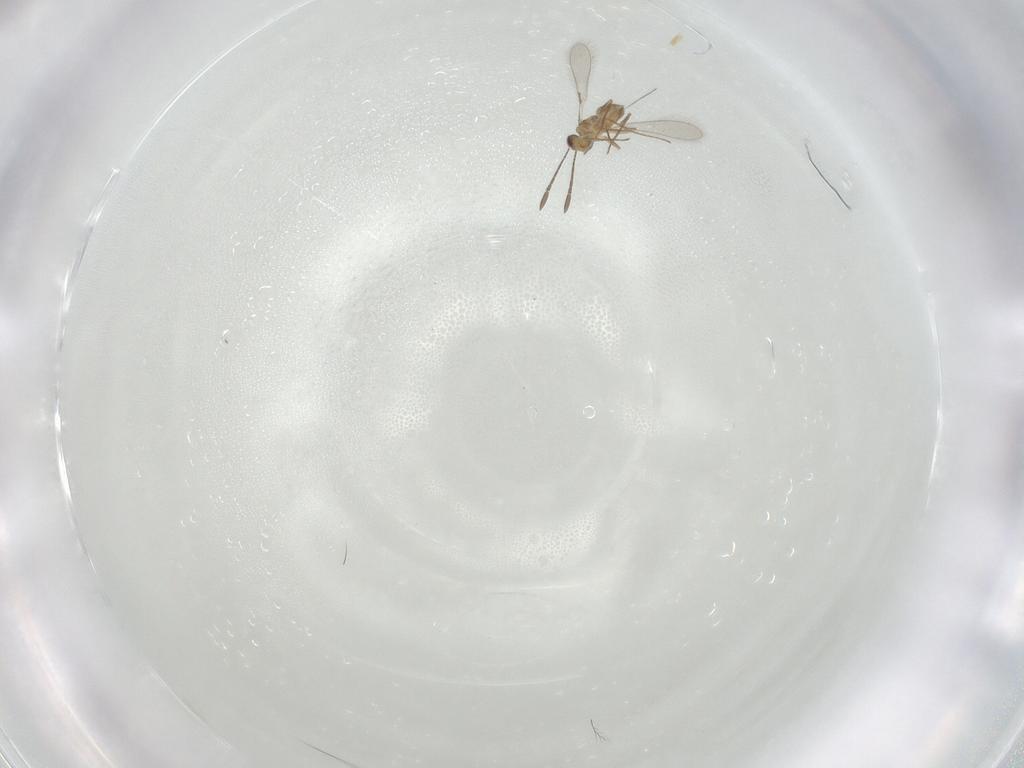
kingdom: Animalia
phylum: Arthropoda
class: Insecta
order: Hymenoptera
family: Mymaridae
